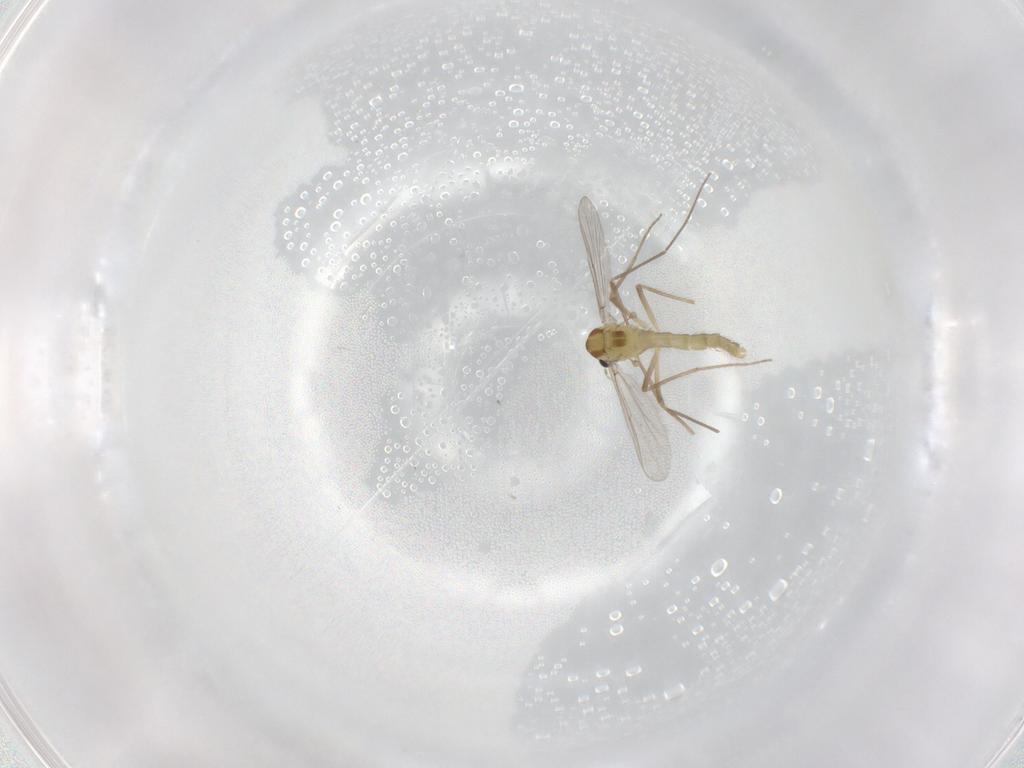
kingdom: Animalia
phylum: Arthropoda
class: Insecta
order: Diptera
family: Chironomidae
